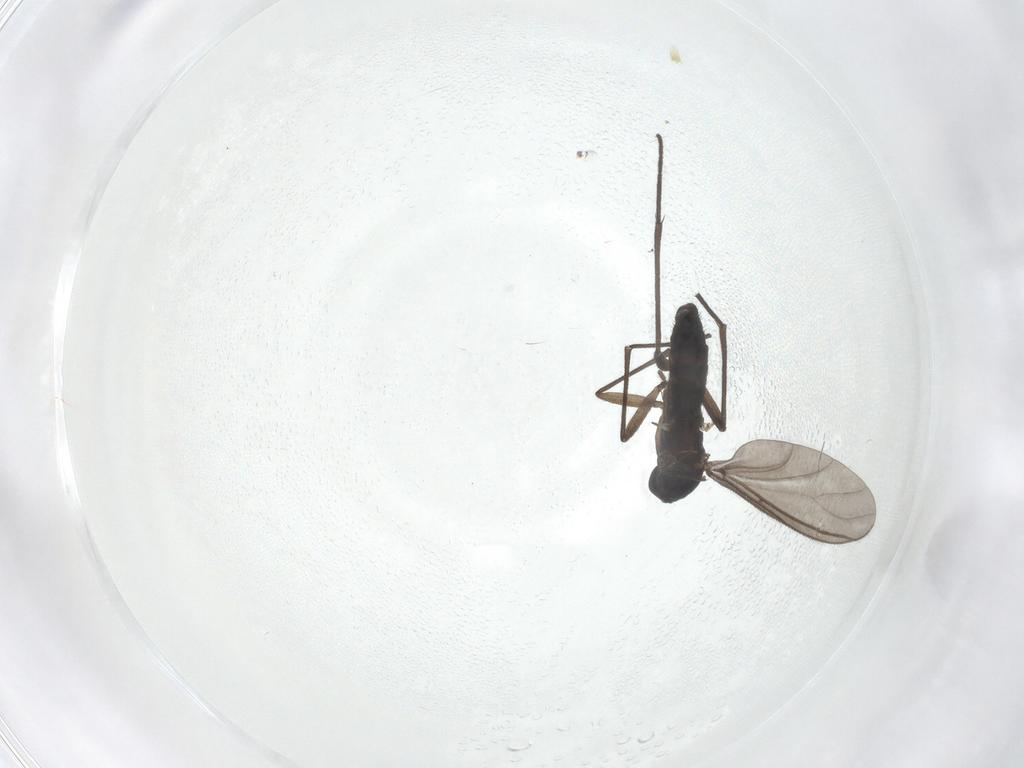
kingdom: Animalia
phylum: Arthropoda
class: Insecta
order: Diptera
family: Sciaridae
